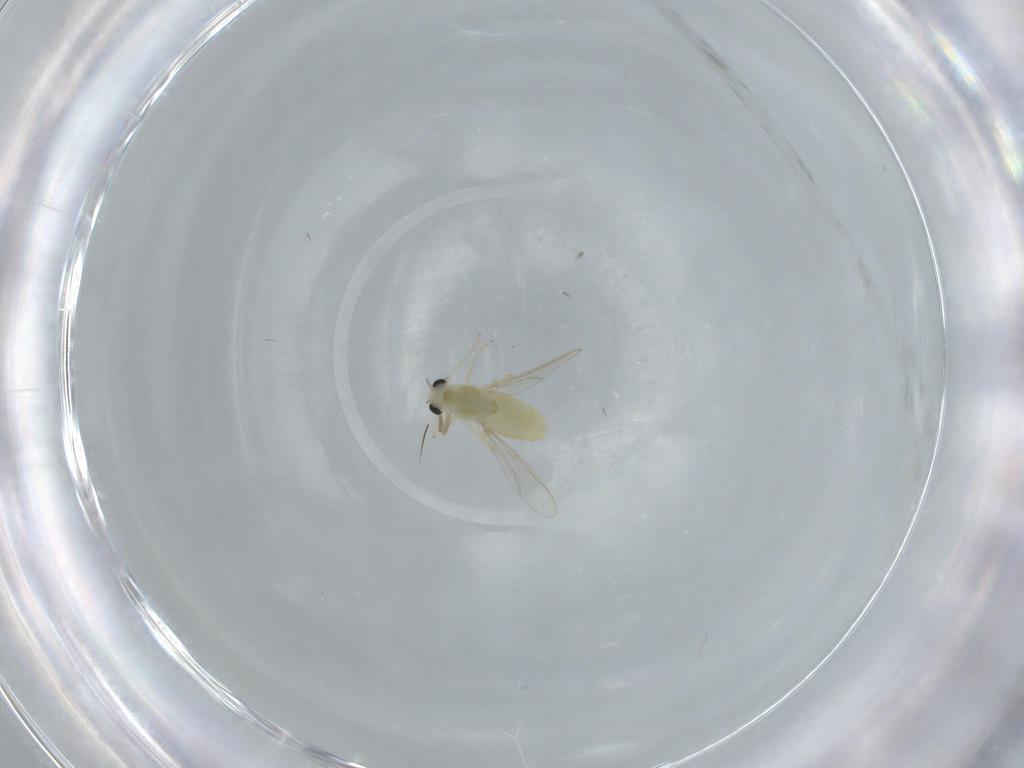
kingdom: Animalia
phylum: Arthropoda
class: Insecta
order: Diptera
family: Chironomidae
